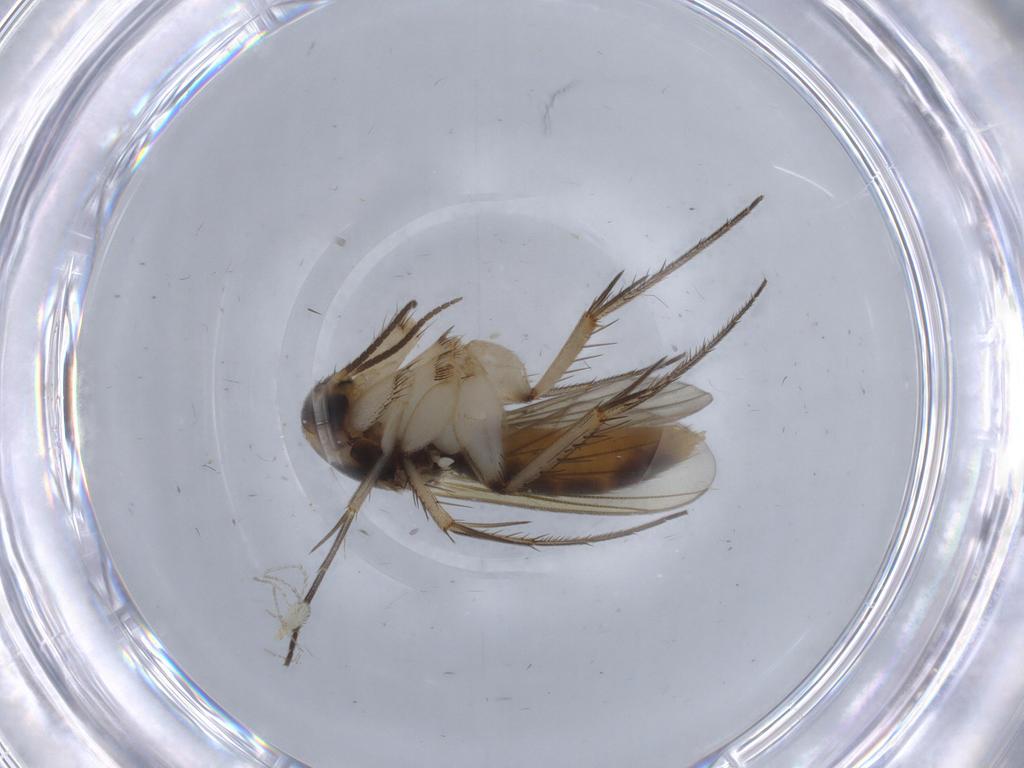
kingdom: Animalia
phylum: Arthropoda
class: Insecta
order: Diptera
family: Mycetophilidae
